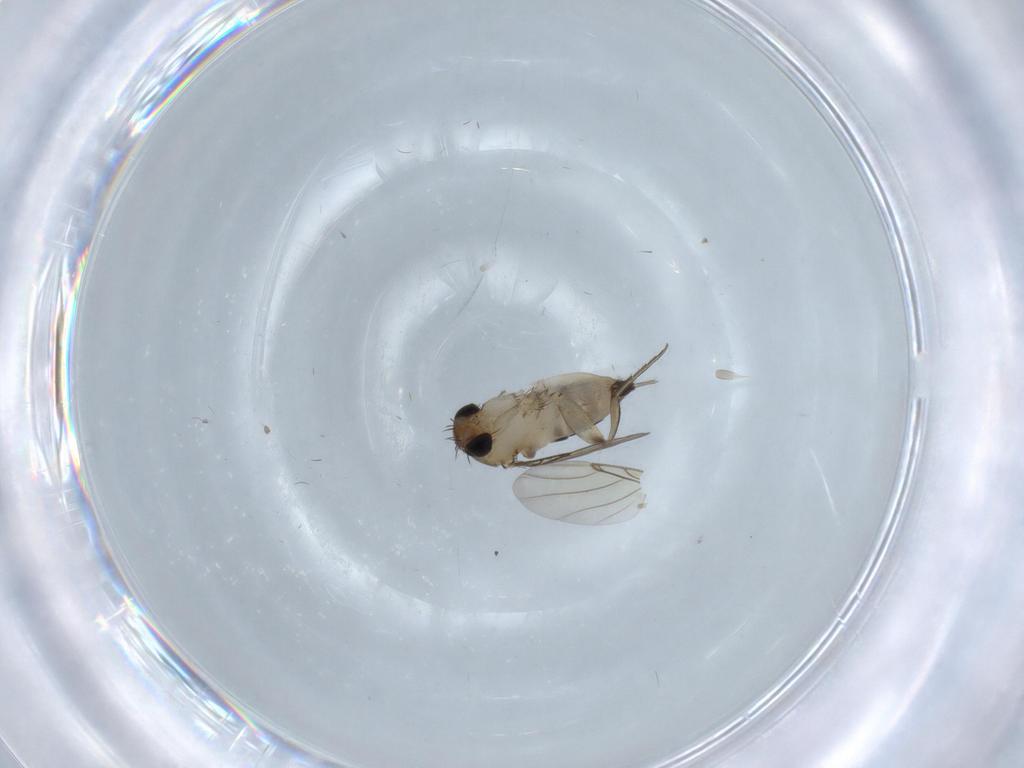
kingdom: Animalia
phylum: Arthropoda
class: Insecta
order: Diptera
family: Phoridae
